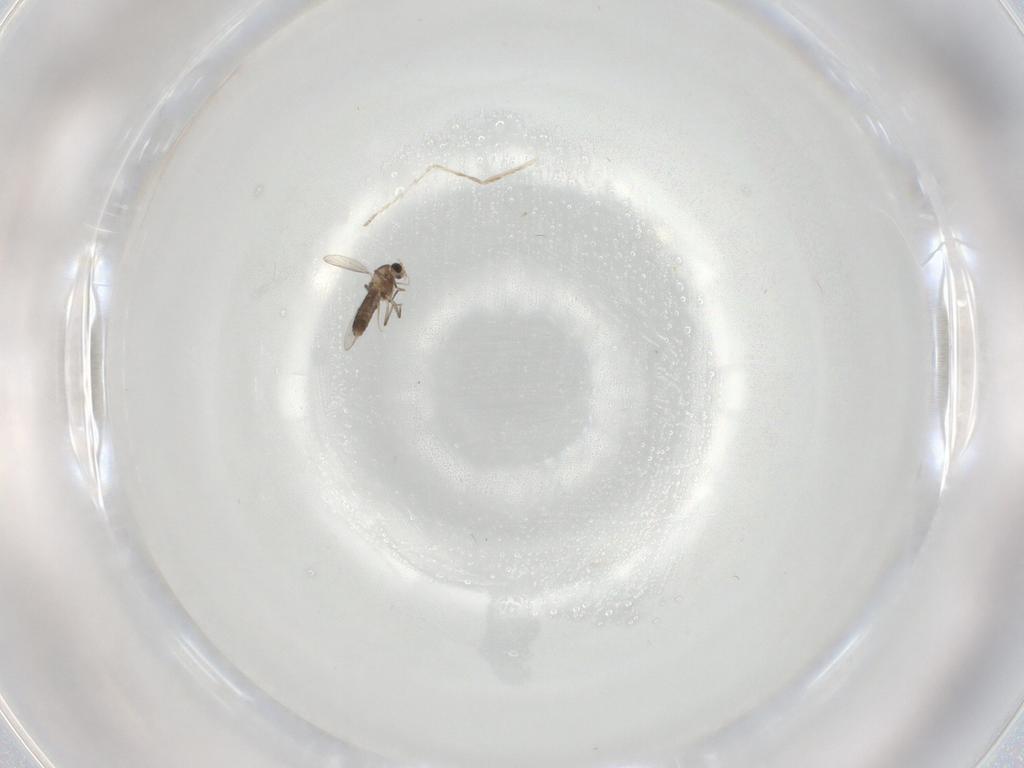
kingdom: Animalia
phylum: Arthropoda
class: Insecta
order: Diptera
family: Chironomidae
